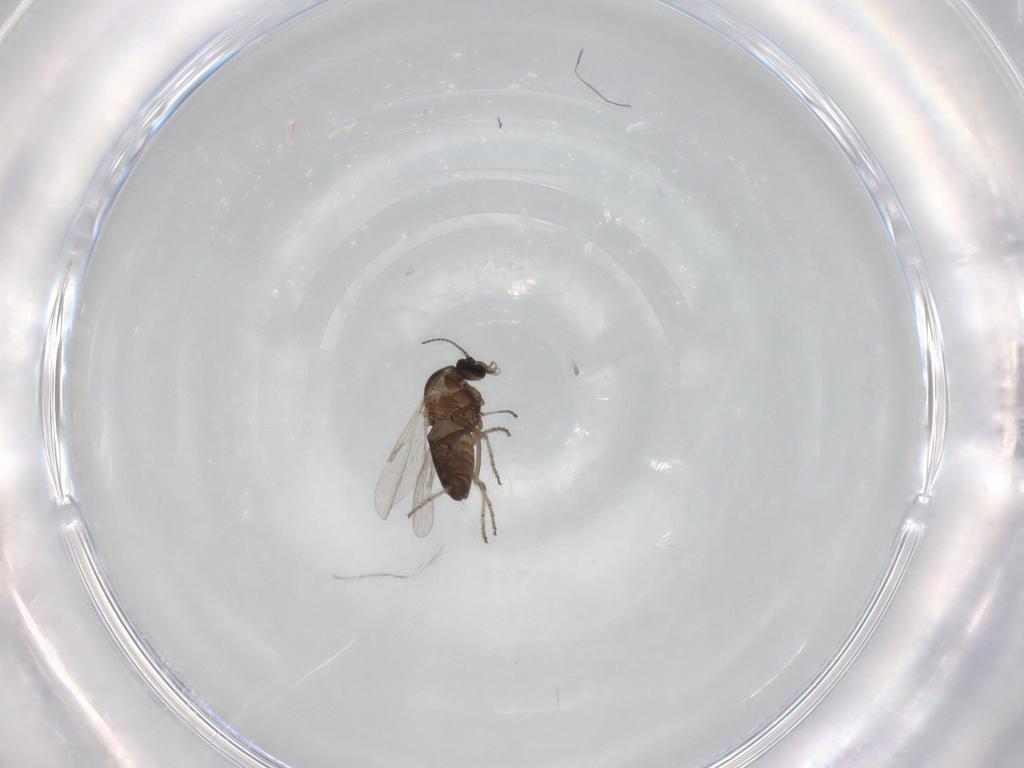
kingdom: Animalia
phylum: Arthropoda
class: Insecta
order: Diptera
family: Ceratopogonidae
